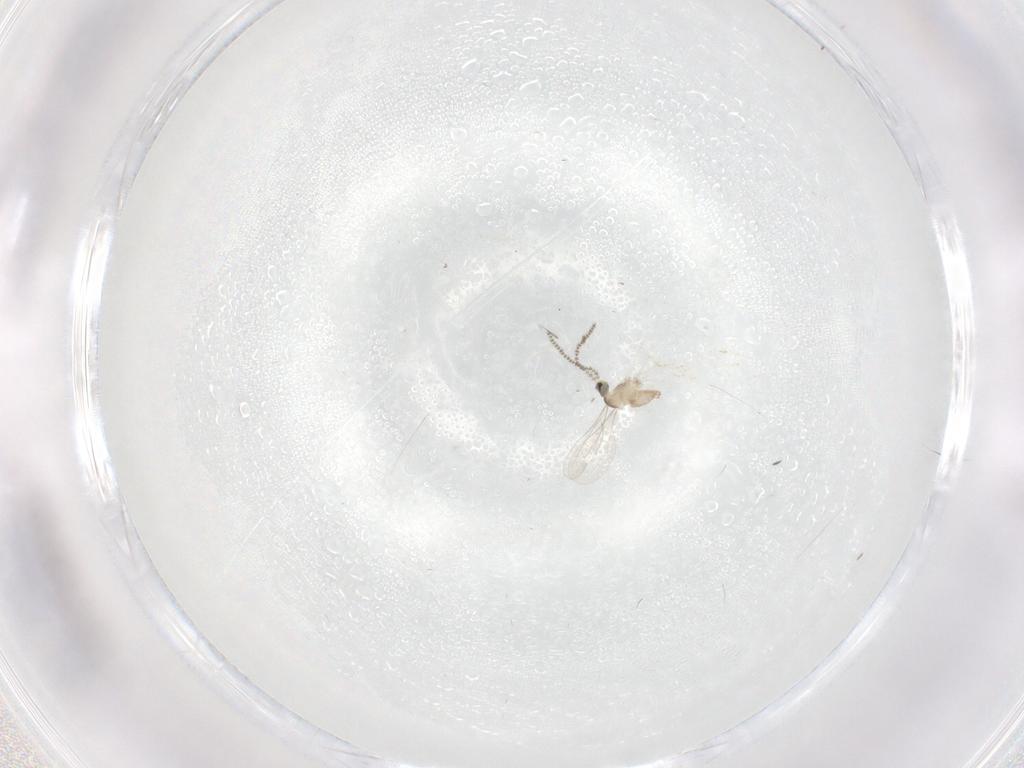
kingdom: Animalia
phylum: Arthropoda
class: Insecta
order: Diptera
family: Cecidomyiidae
